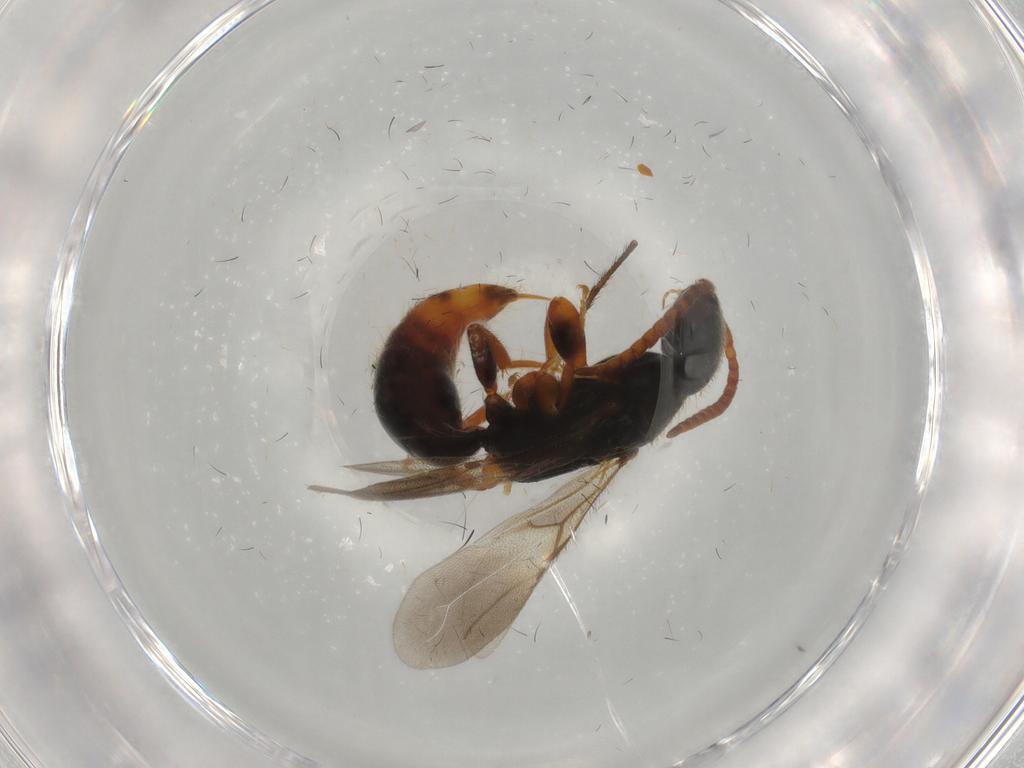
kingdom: Animalia
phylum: Arthropoda
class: Insecta
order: Hymenoptera
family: Bethylidae
